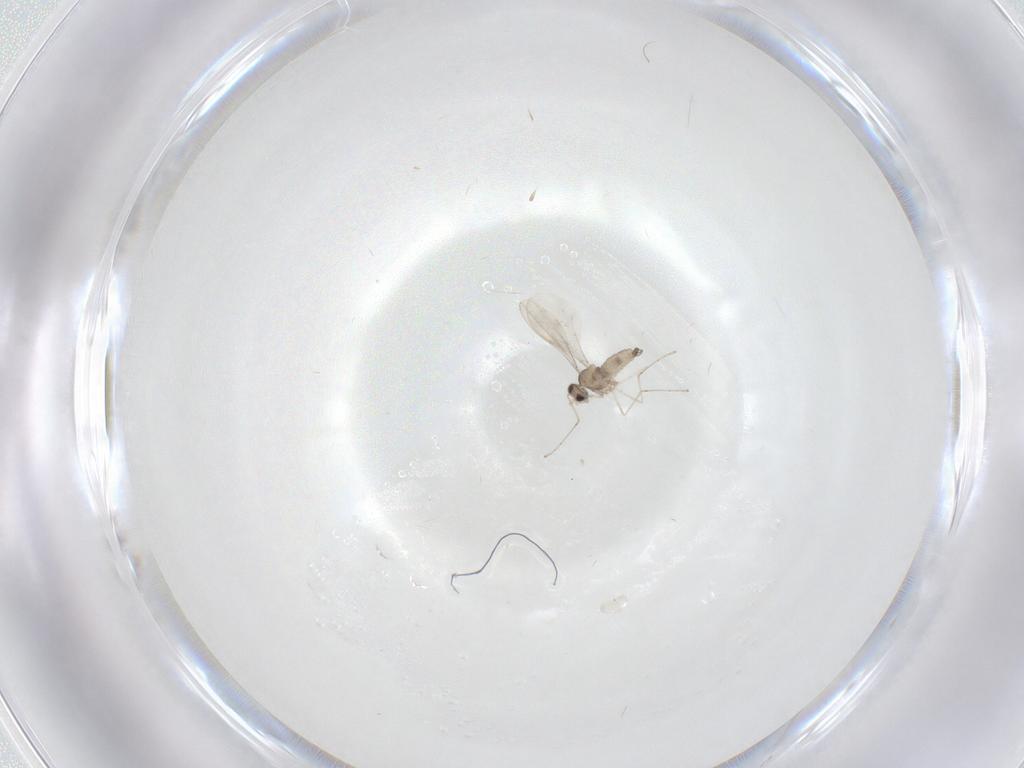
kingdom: Animalia
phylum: Arthropoda
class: Insecta
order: Diptera
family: Cecidomyiidae
